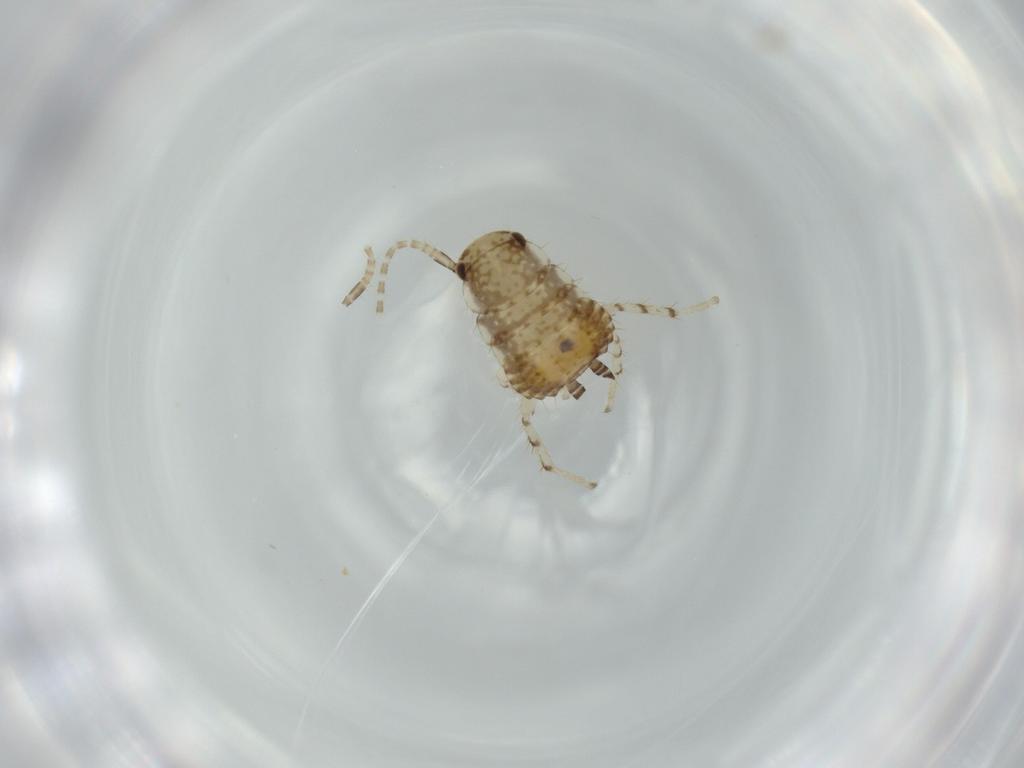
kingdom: Animalia
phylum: Arthropoda
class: Insecta
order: Blattodea
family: Ectobiidae
